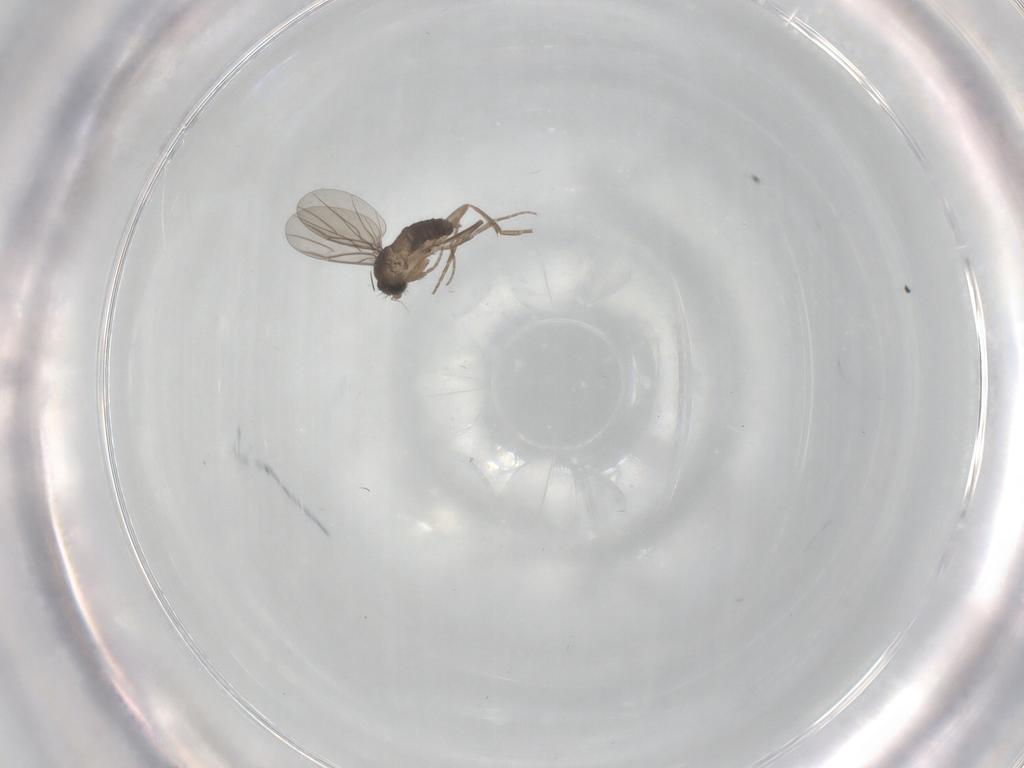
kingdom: Animalia
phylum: Arthropoda
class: Insecta
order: Diptera
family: Phoridae
